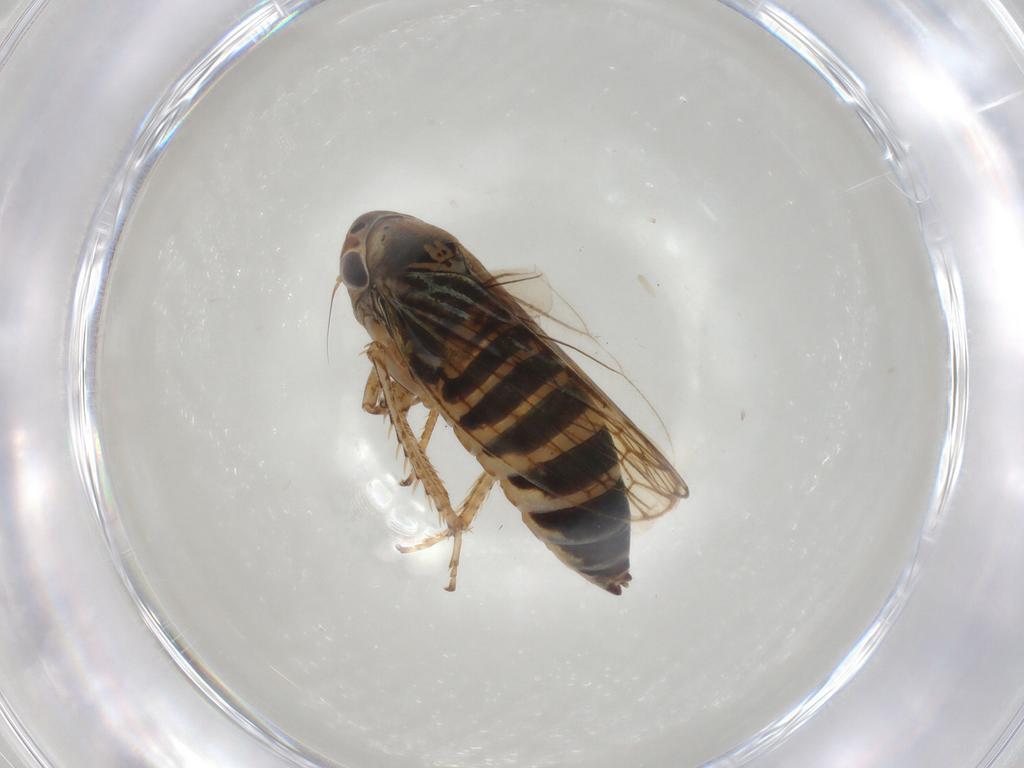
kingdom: Animalia
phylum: Arthropoda
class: Insecta
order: Hemiptera
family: Cicadellidae
